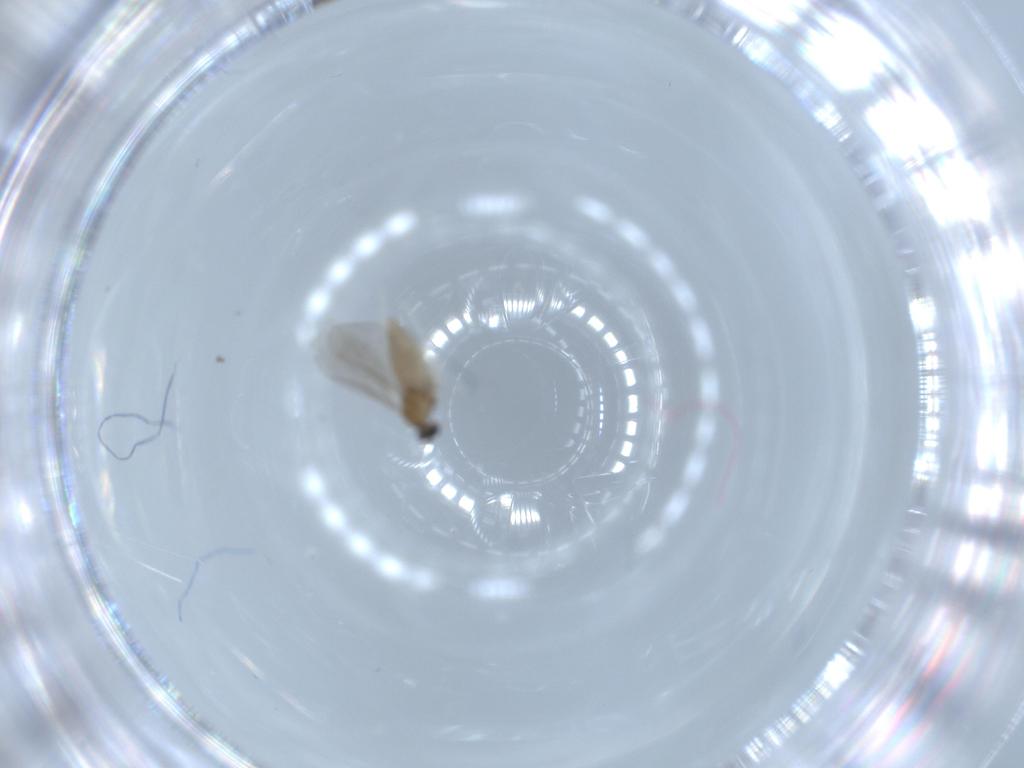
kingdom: Animalia
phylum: Arthropoda
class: Insecta
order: Diptera
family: Cecidomyiidae
